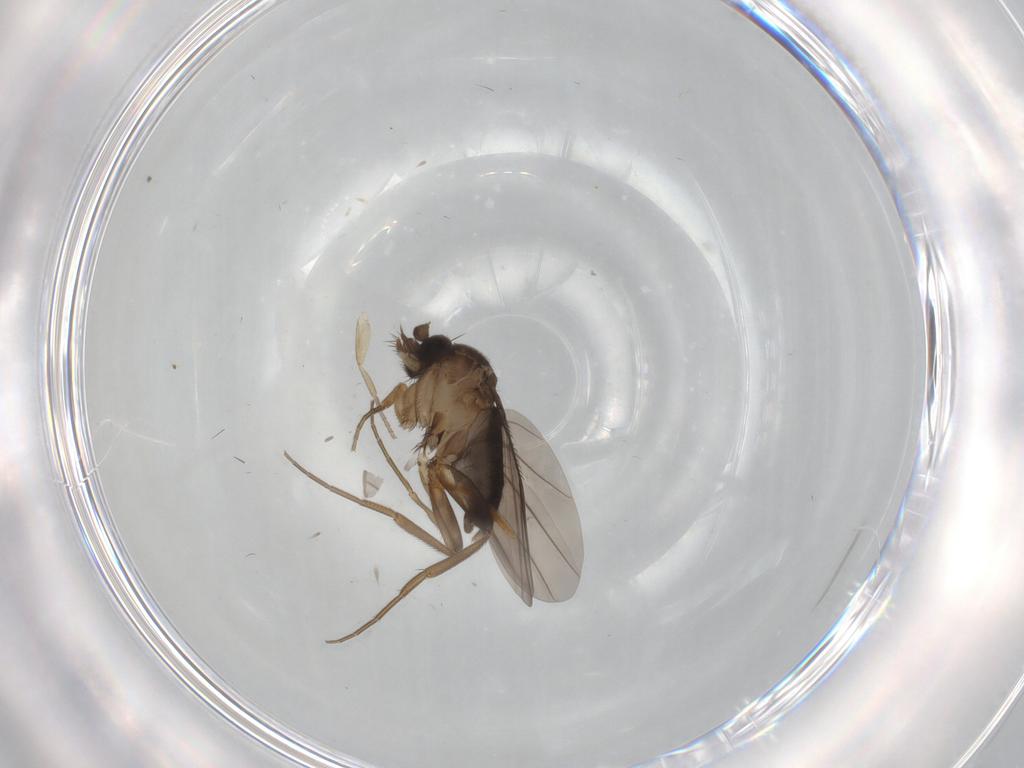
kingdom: Animalia
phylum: Arthropoda
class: Insecta
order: Diptera
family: Phoridae
